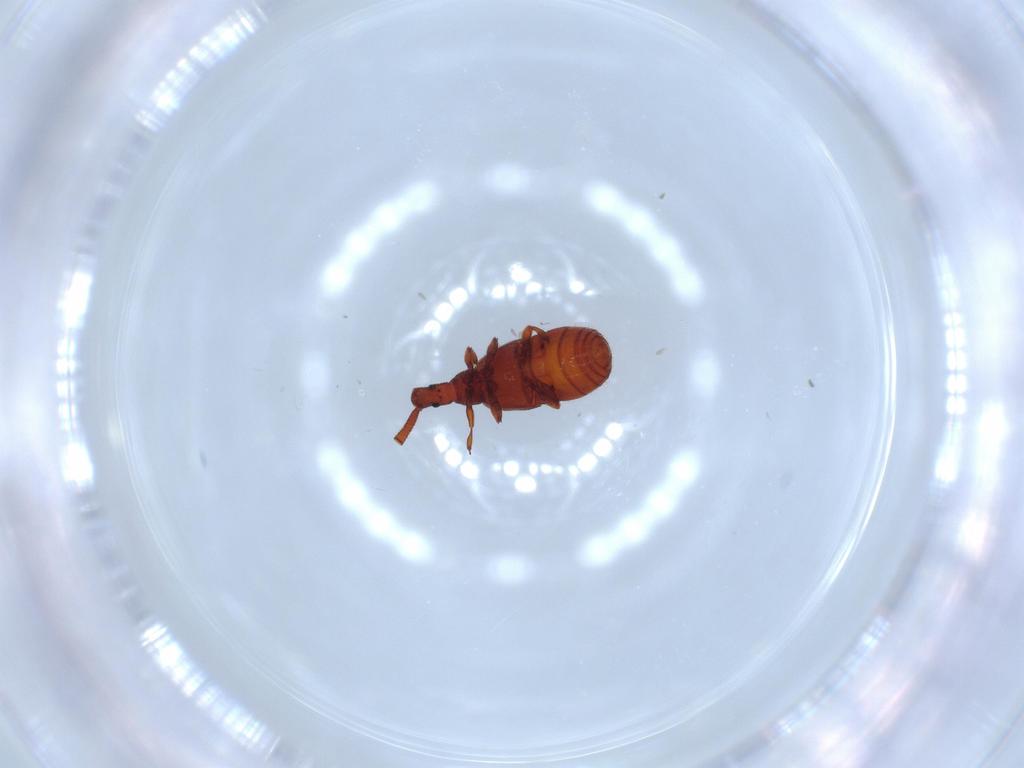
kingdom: Animalia
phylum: Arthropoda
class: Insecta
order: Coleoptera
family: Staphylinidae
